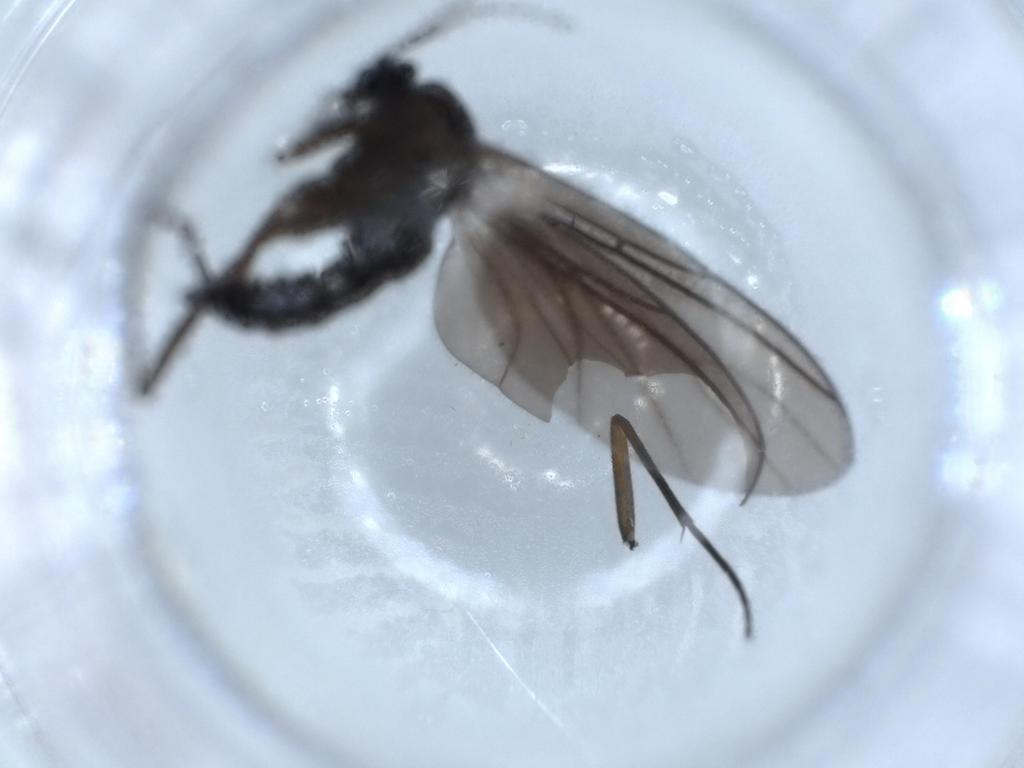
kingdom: Animalia
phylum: Arthropoda
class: Insecta
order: Diptera
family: Sciaridae
